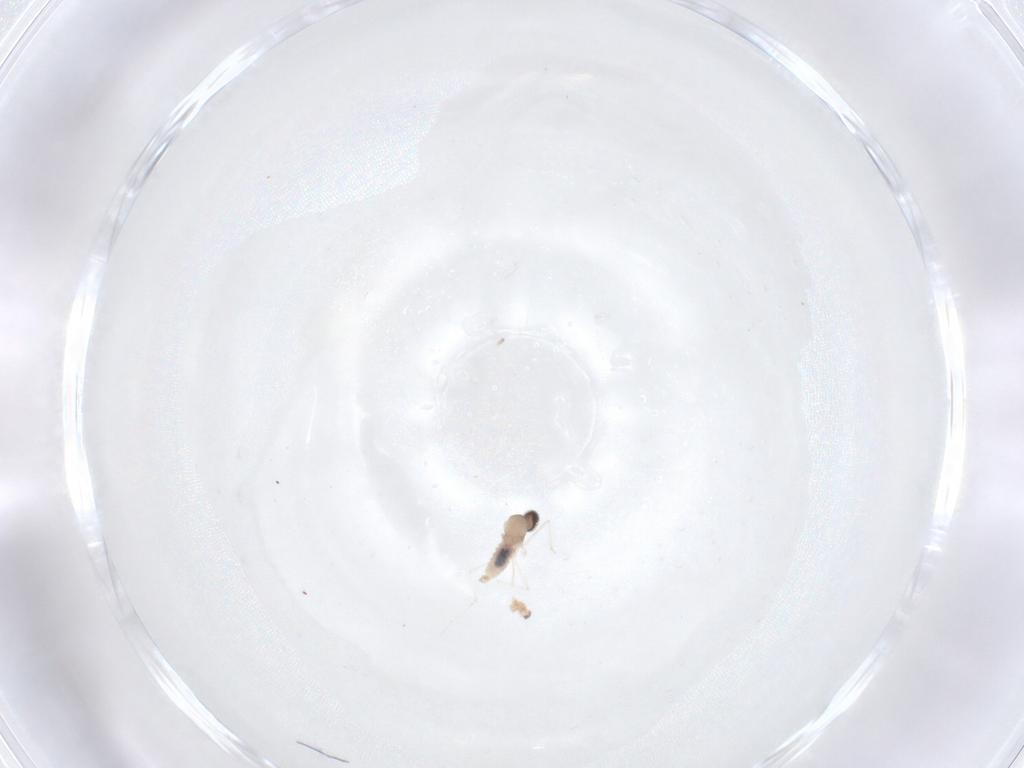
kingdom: Animalia
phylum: Arthropoda
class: Insecta
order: Diptera
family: Cecidomyiidae
